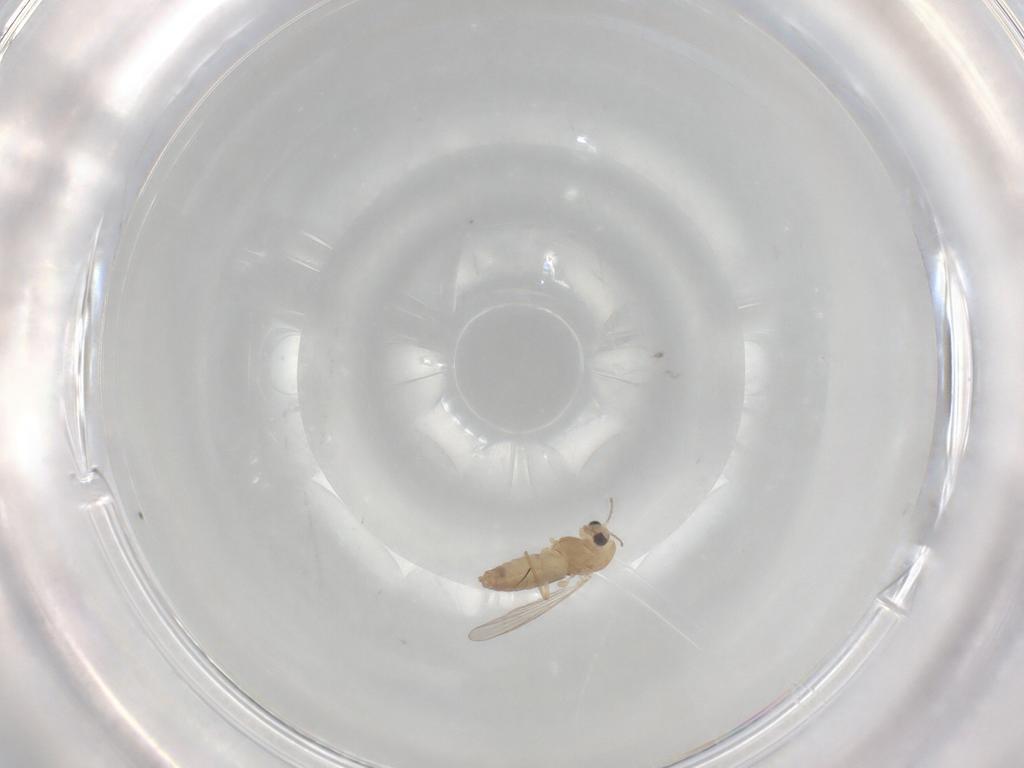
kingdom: Animalia
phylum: Arthropoda
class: Insecta
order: Diptera
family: Chironomidae
